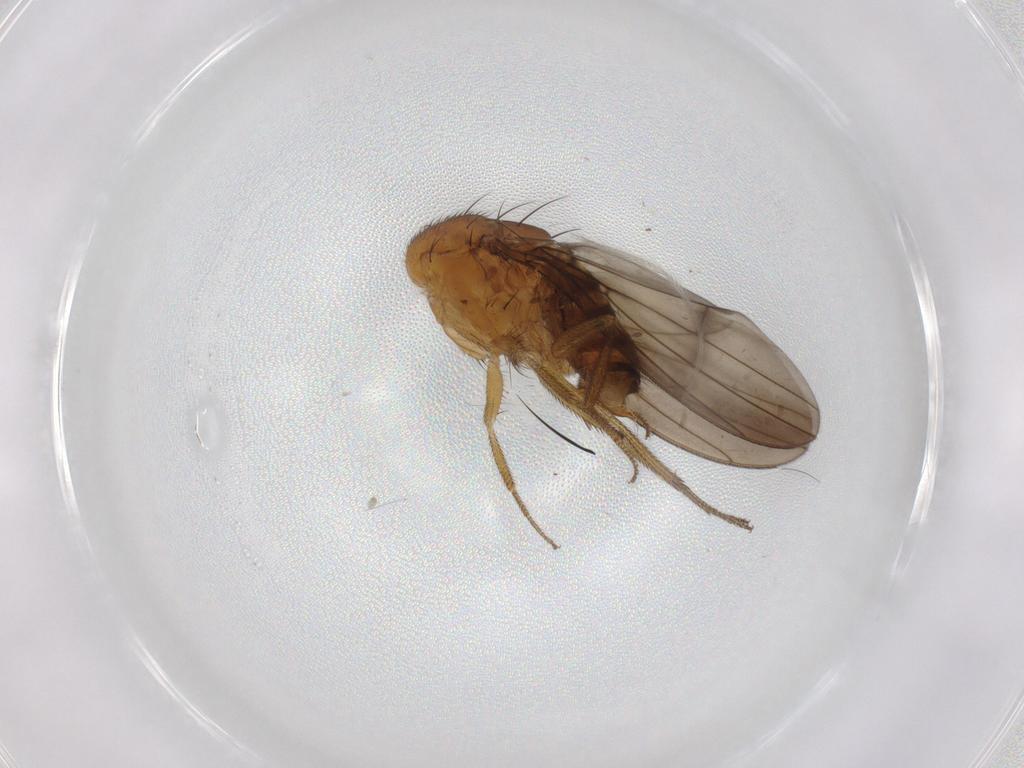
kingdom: Animalia
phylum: Arthropoda
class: Insecta
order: Diptera
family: Drosophilidae
